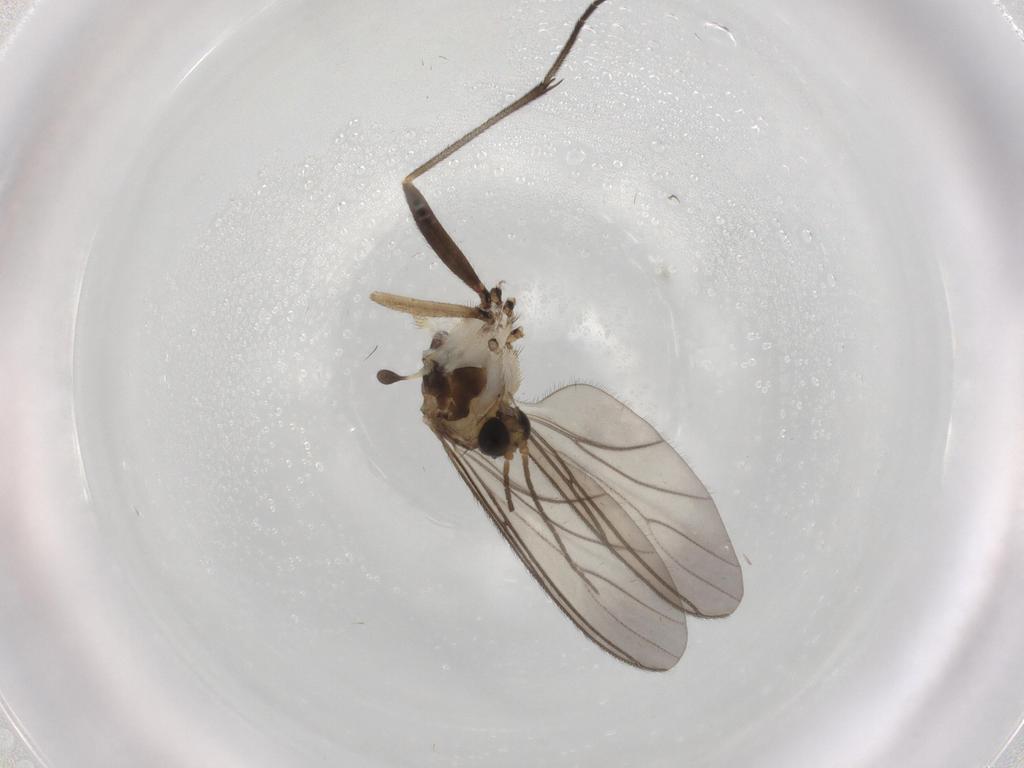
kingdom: Animalia
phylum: Arthropoda
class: Insecta
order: Diptera
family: Sciaridae
